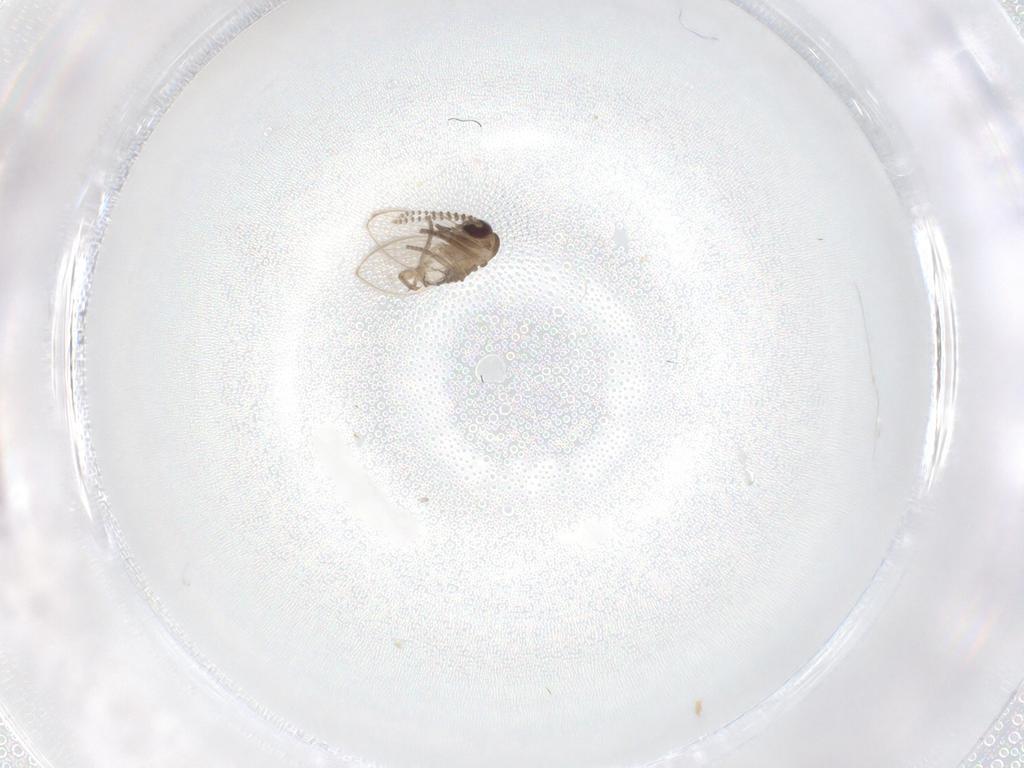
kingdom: Animalia
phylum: Arthropoda
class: Insecta
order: Diptera
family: Psychodidae
